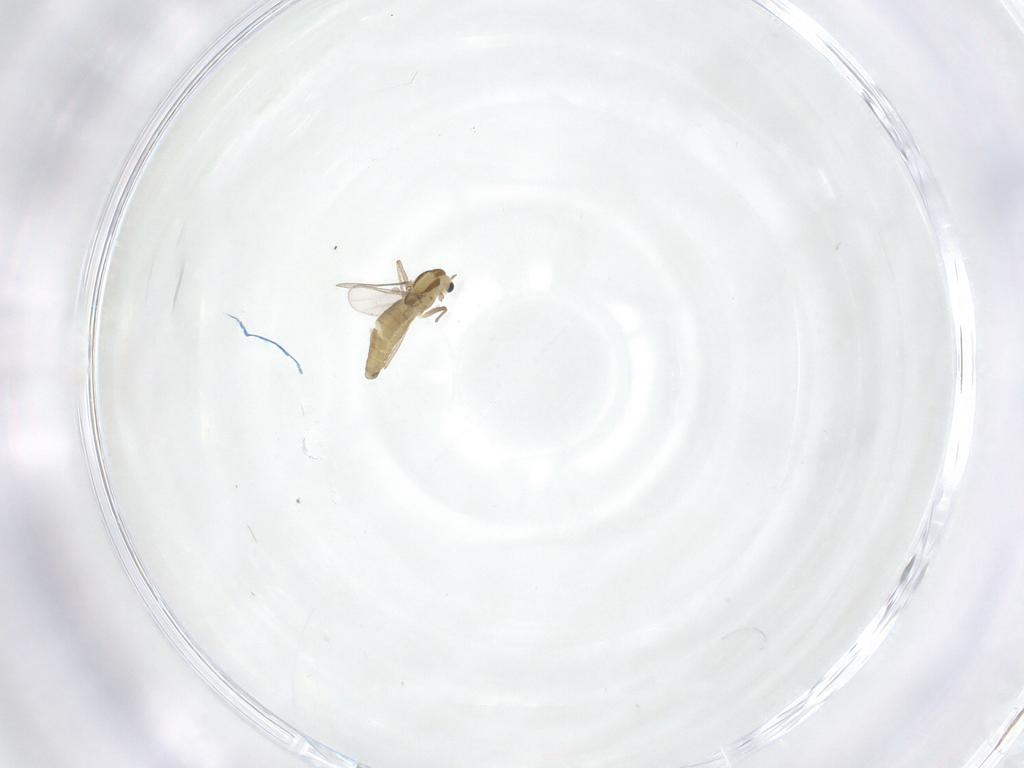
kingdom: Animalia
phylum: Arthropoda
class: Insecta
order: Diptera
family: Chironomidae
